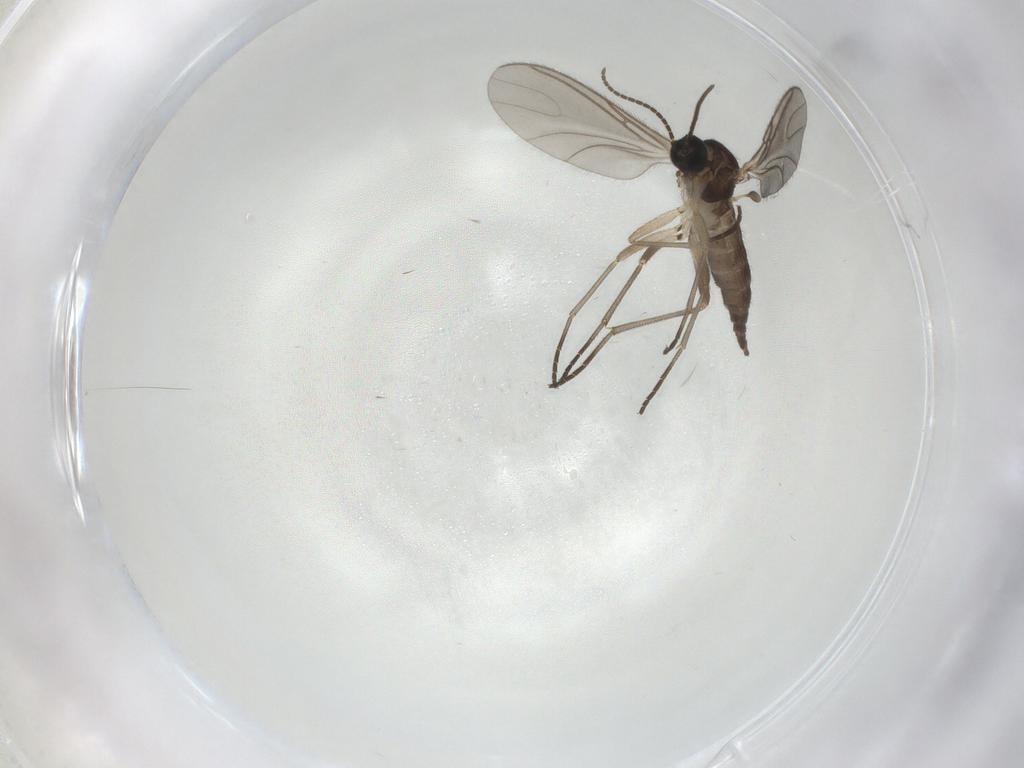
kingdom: Animalia
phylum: Arthropoda
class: Insecta
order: Diptera
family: Sciaridae
